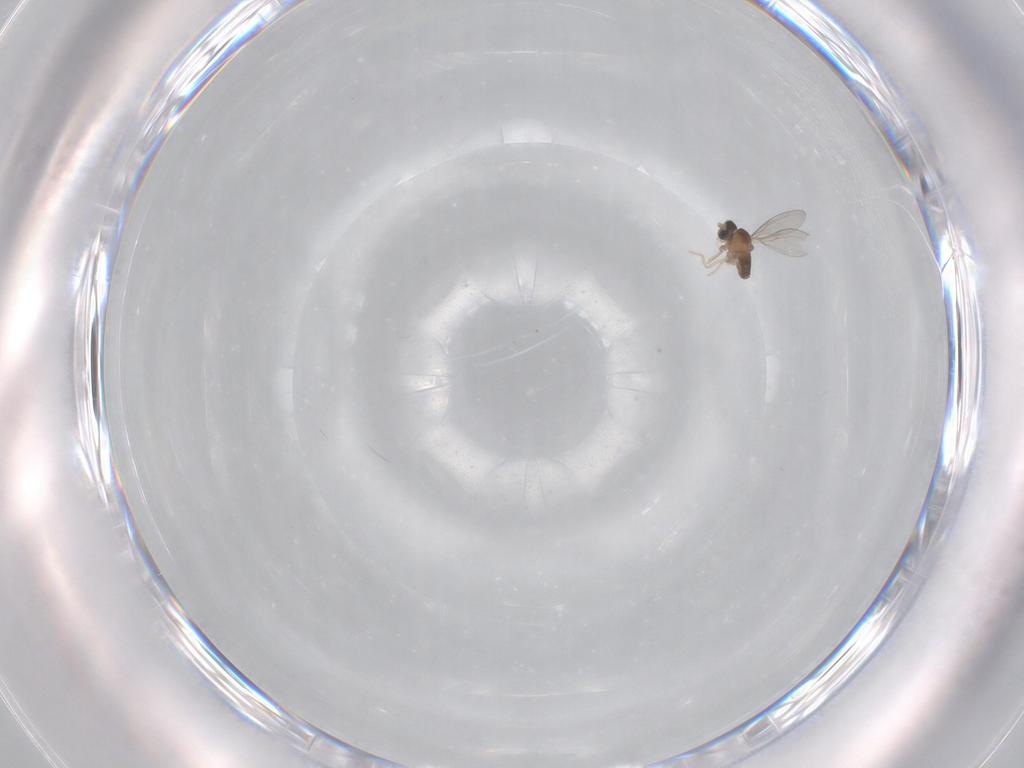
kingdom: Animalia
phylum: Arthropoda
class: Insecta
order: Diptera
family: Cecidomyiidae
